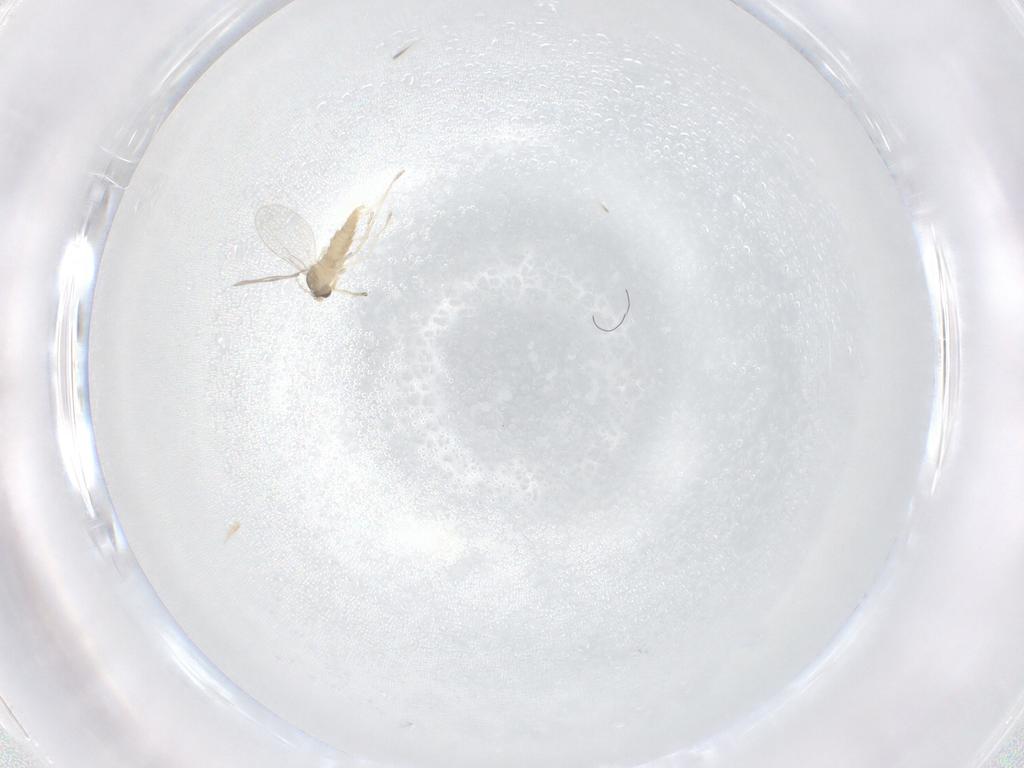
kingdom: Animalia
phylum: Arthropoda
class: Insecta
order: Diptera
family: Cecidomyiidae
